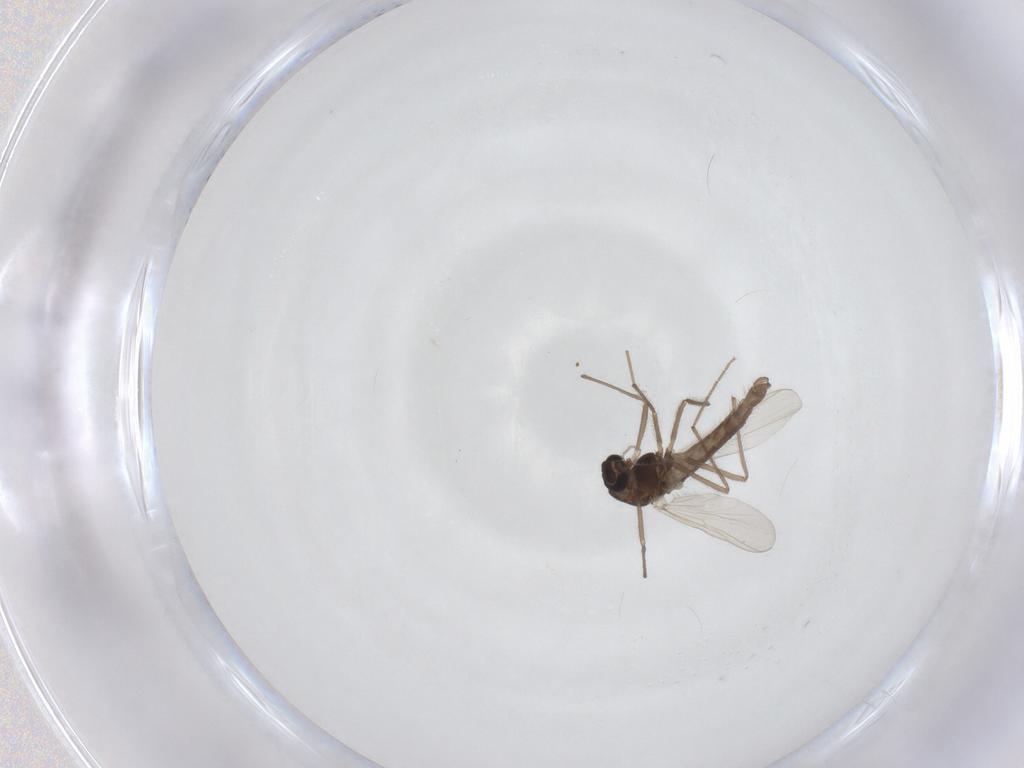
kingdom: Animalia
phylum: Arthropoda
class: Insecta
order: Diptera
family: Chironomidae
